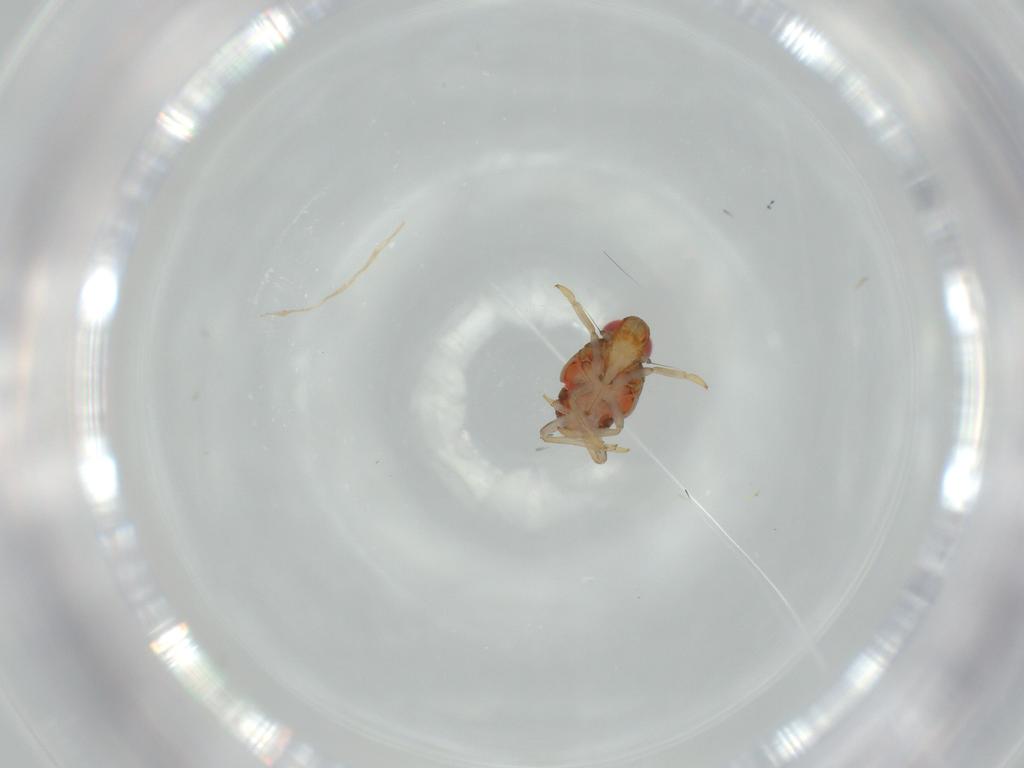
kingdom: Animalia
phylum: Arthropoda
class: Insecta
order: Hemiptera
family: Issidae
